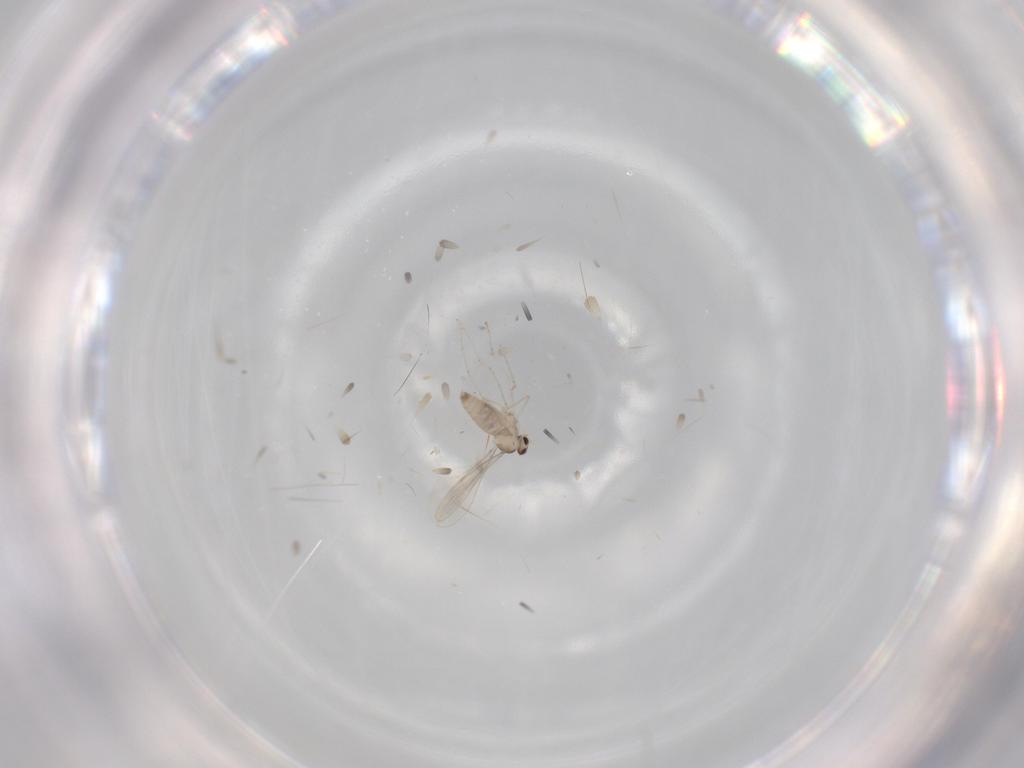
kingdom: Animalia
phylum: Arthropoda
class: Insecta
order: Diptera
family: Cecidomyiidae
